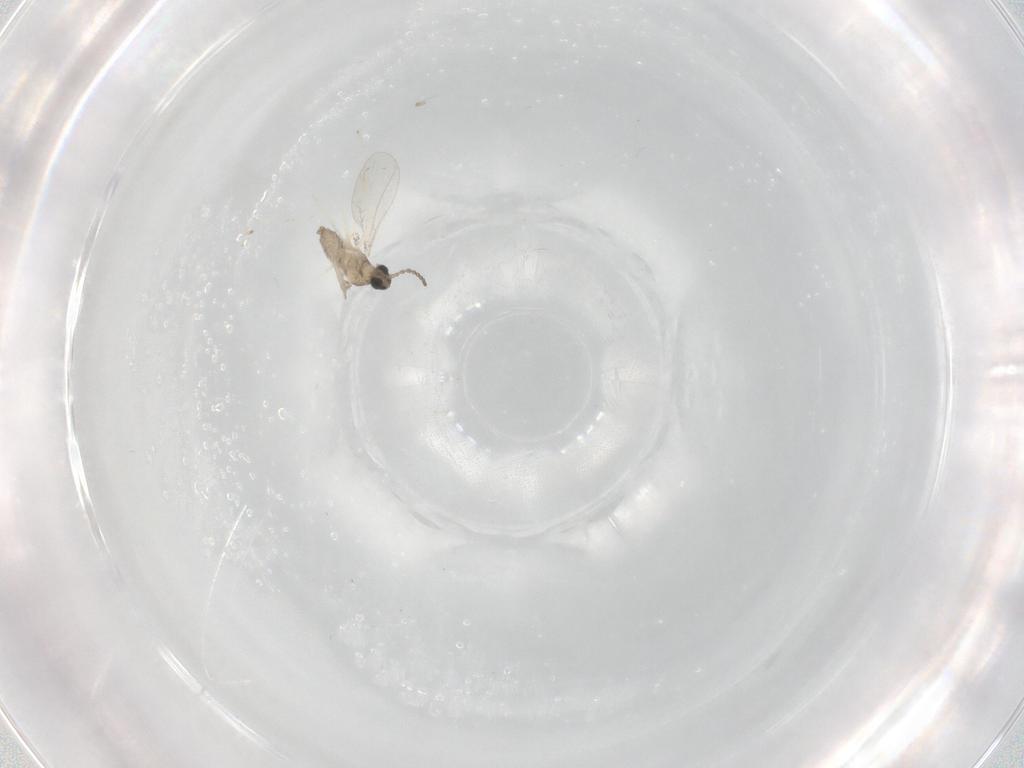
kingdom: Animalia
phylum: Arthropoda
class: Insecta
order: Diptera
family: Cecidomyiidae
